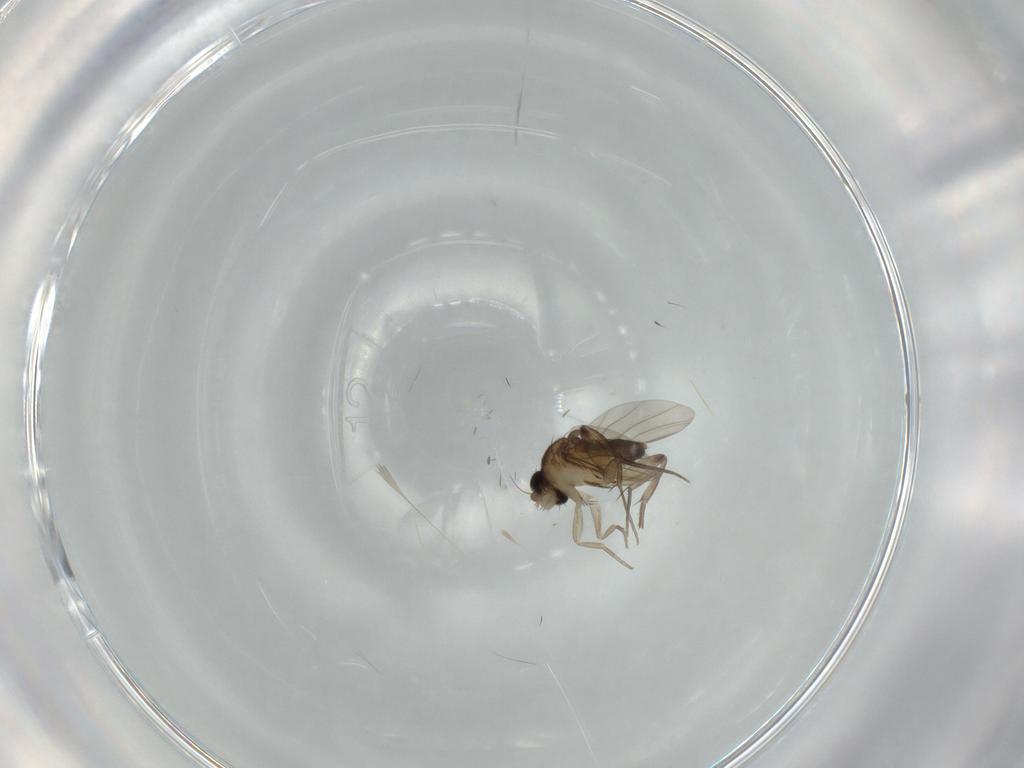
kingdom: Animalia
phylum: Arthropoda
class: Insecta
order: Diptera
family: Phoridae
